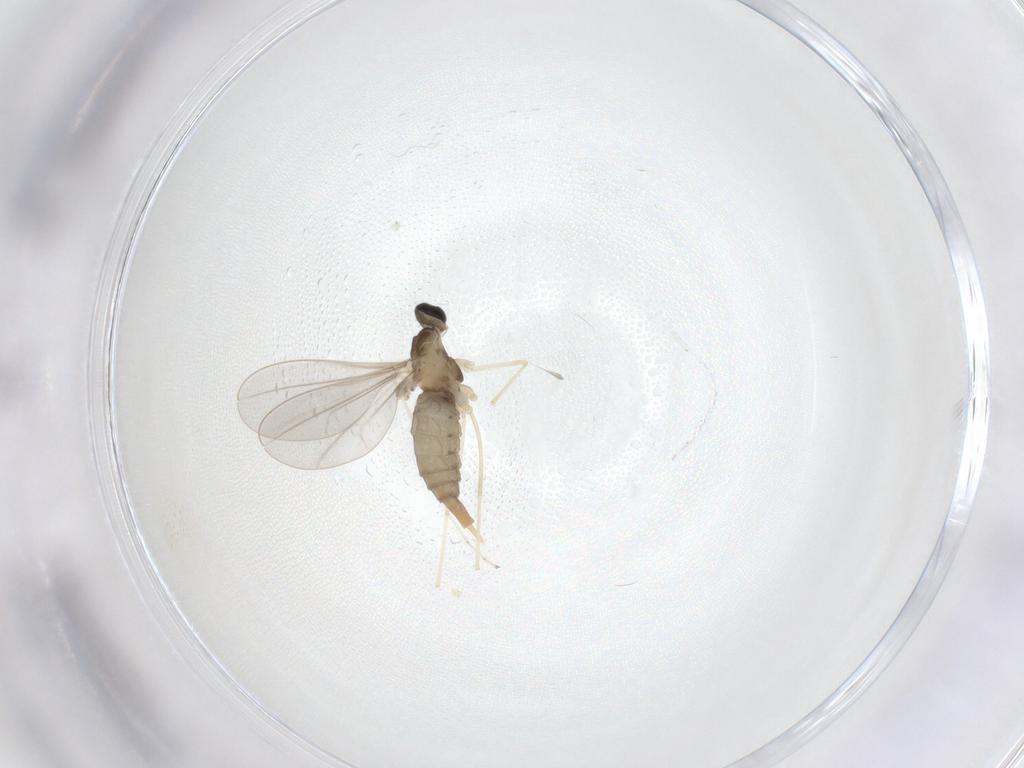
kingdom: Animalia
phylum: Arthropoda
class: Insecta
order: Diptera
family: Cecidomyiidae
